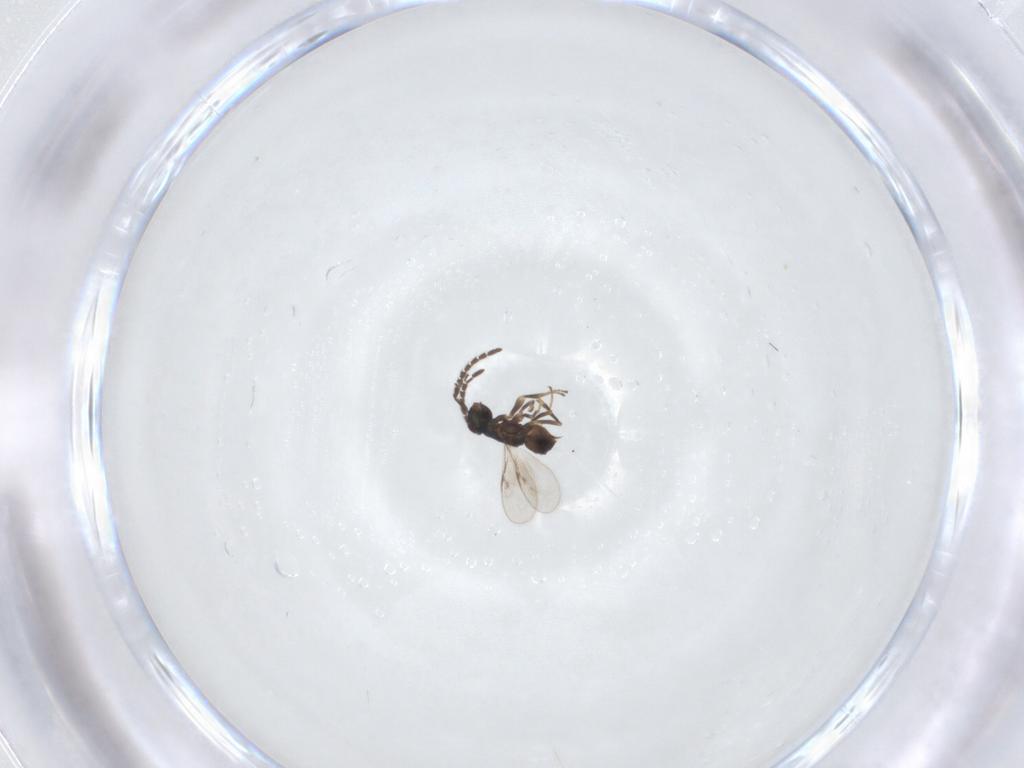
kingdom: Animalia
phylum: Arthropoda
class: Insecta
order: Hymenoptera
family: Encyrtidae
